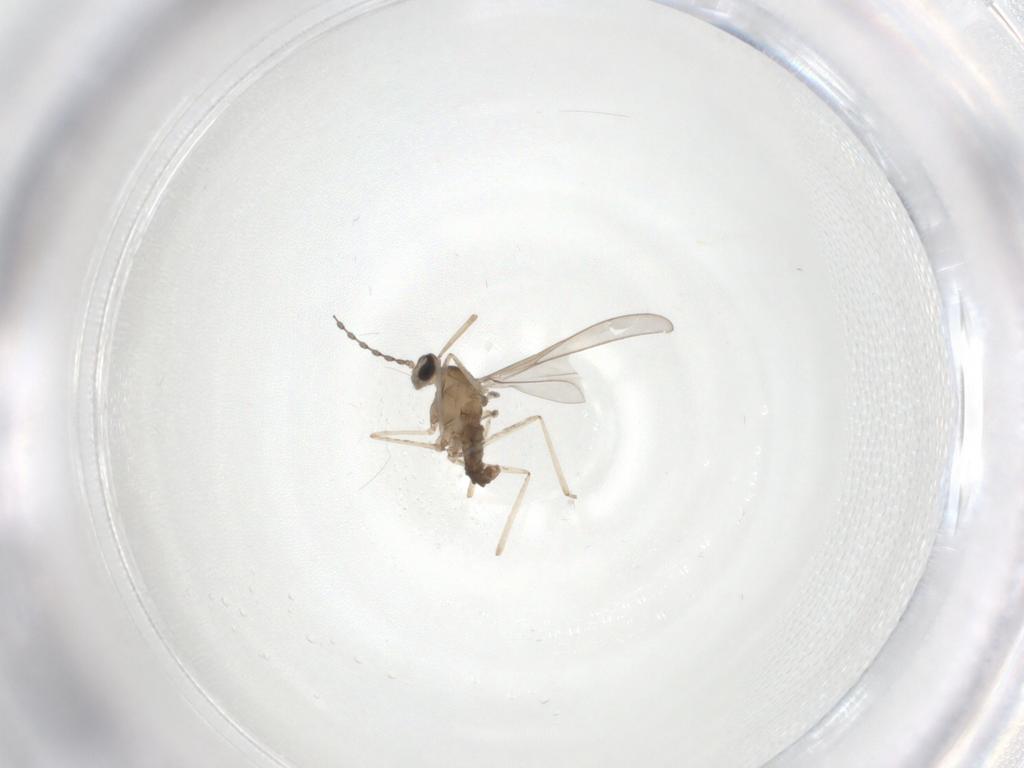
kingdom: Animalia
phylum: Arthropoda
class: Insecta
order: Diptera
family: Cecidomyiidae
